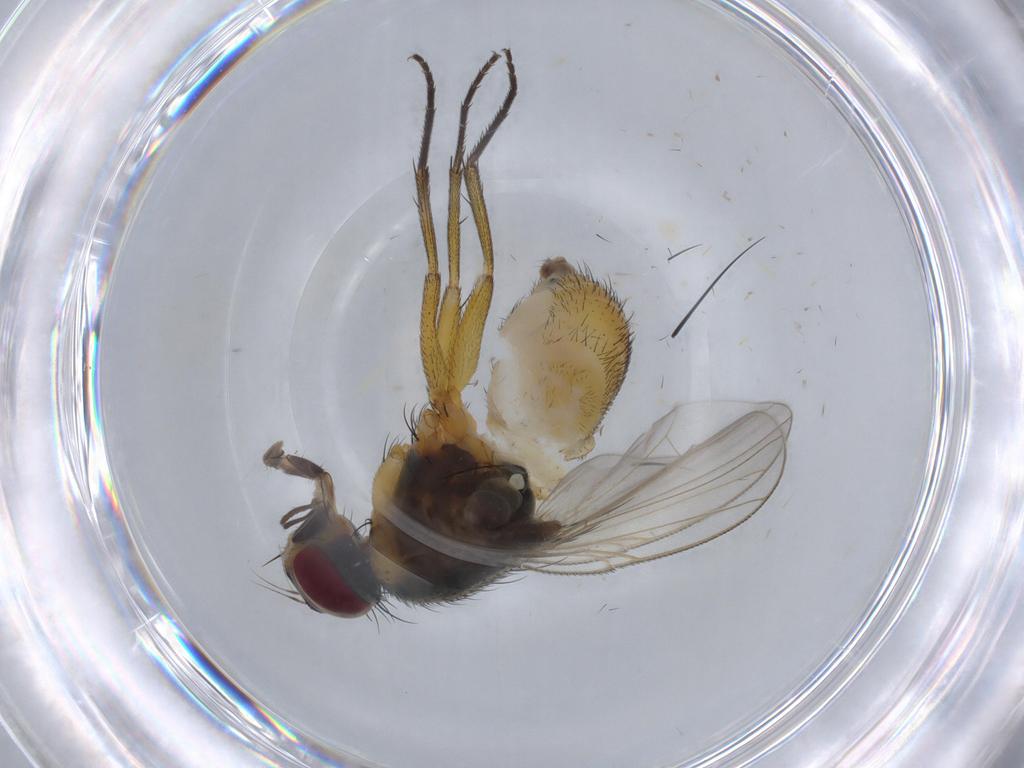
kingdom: Animalia
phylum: Arthropoda
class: Insecta
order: Diptera
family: Muscidae
